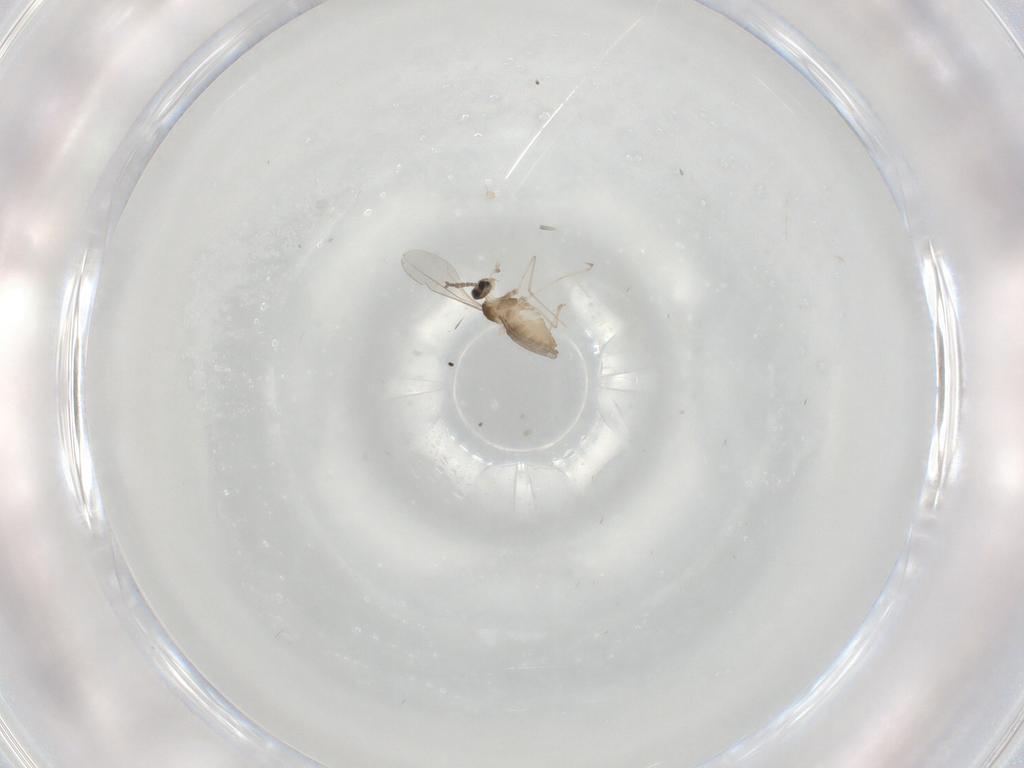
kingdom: Animalia
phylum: Arthropoda
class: Insecta
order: Diptera
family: Cecidomyiidae
